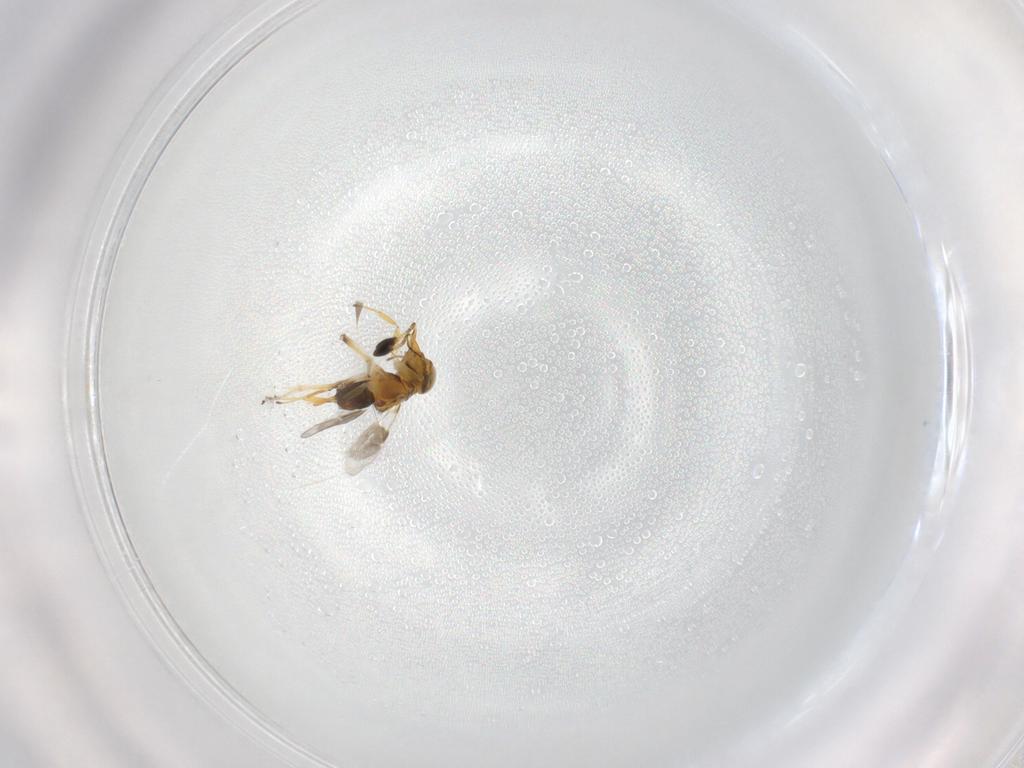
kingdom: Animalia
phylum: Arthropoda
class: Insecta
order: Hymenoptera
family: Encyrtidae
